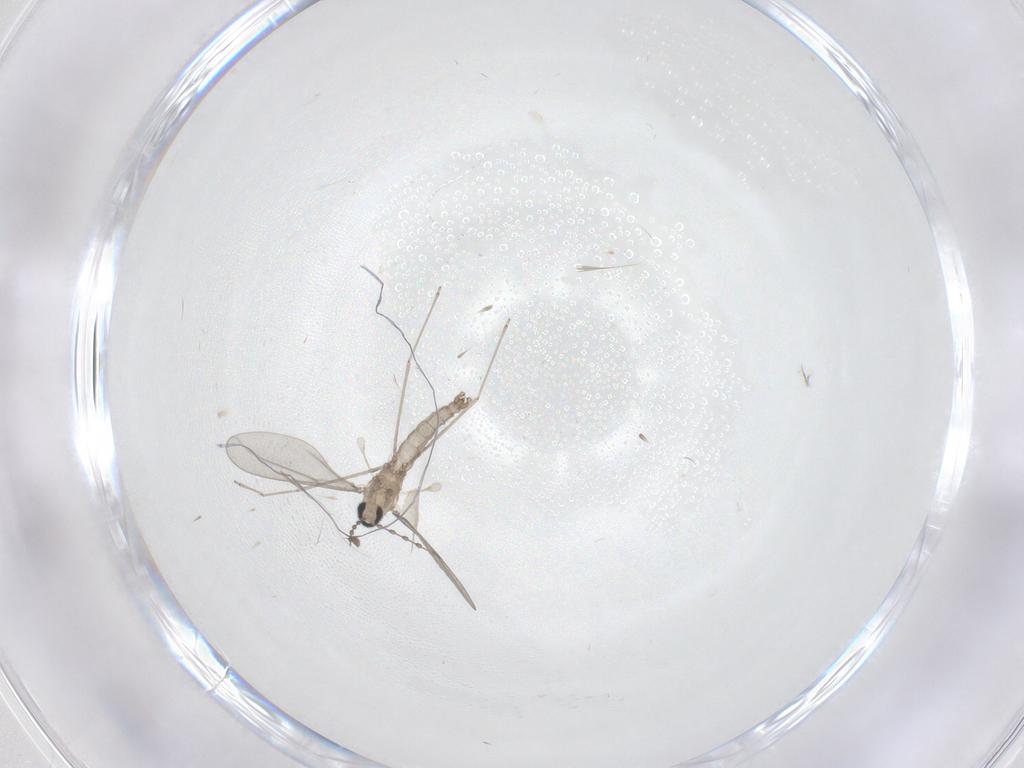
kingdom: Animalia
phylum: Arthropoda
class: Insecta
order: Diptera
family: Cecidomyiidae
